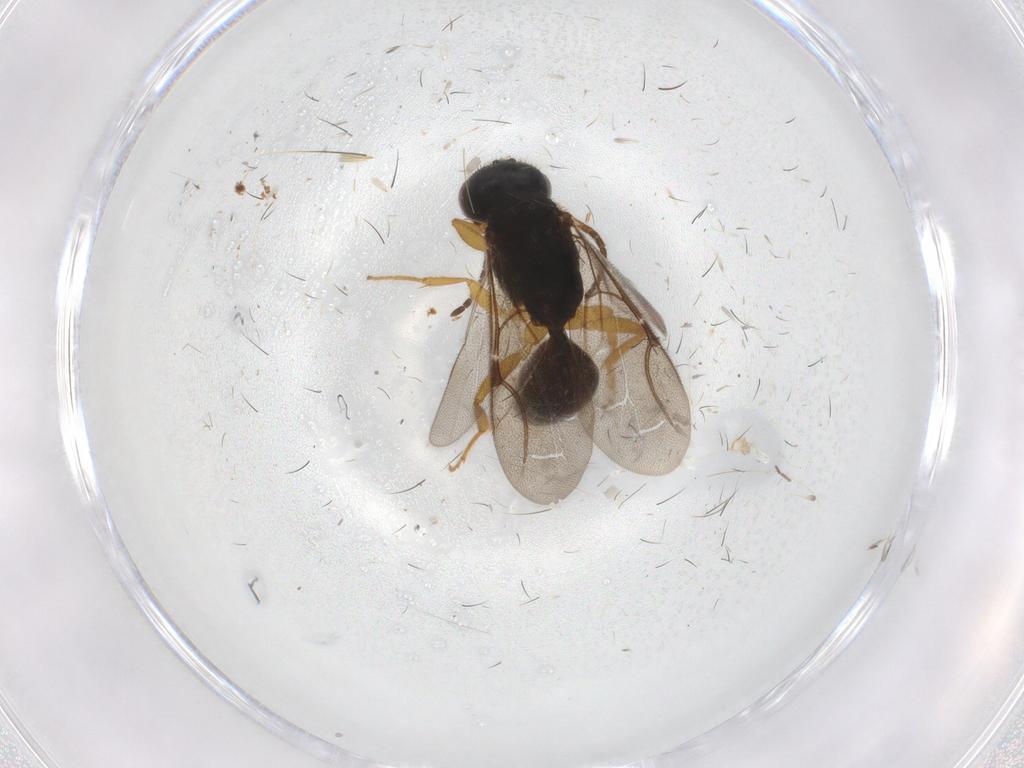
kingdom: Animalia
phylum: Arthropoda
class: Insecta
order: Hymenoptera
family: Bethylidae
